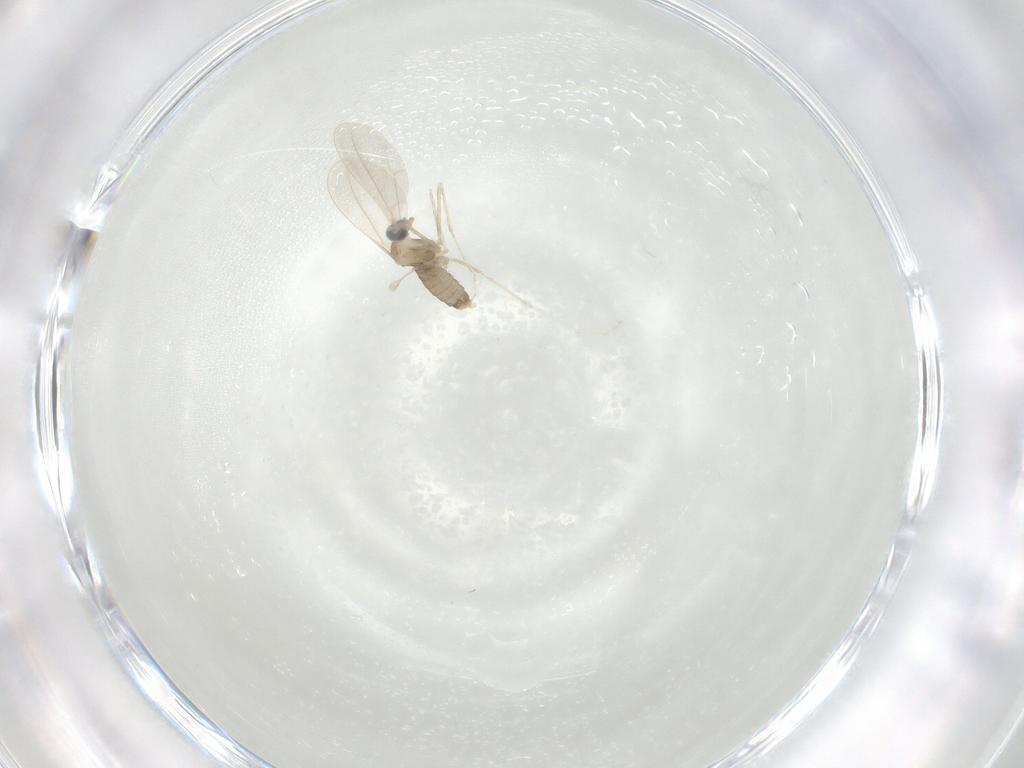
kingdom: Animalia
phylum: Arthropoda
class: Insecta
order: Diptera
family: Cecidomyiidae
